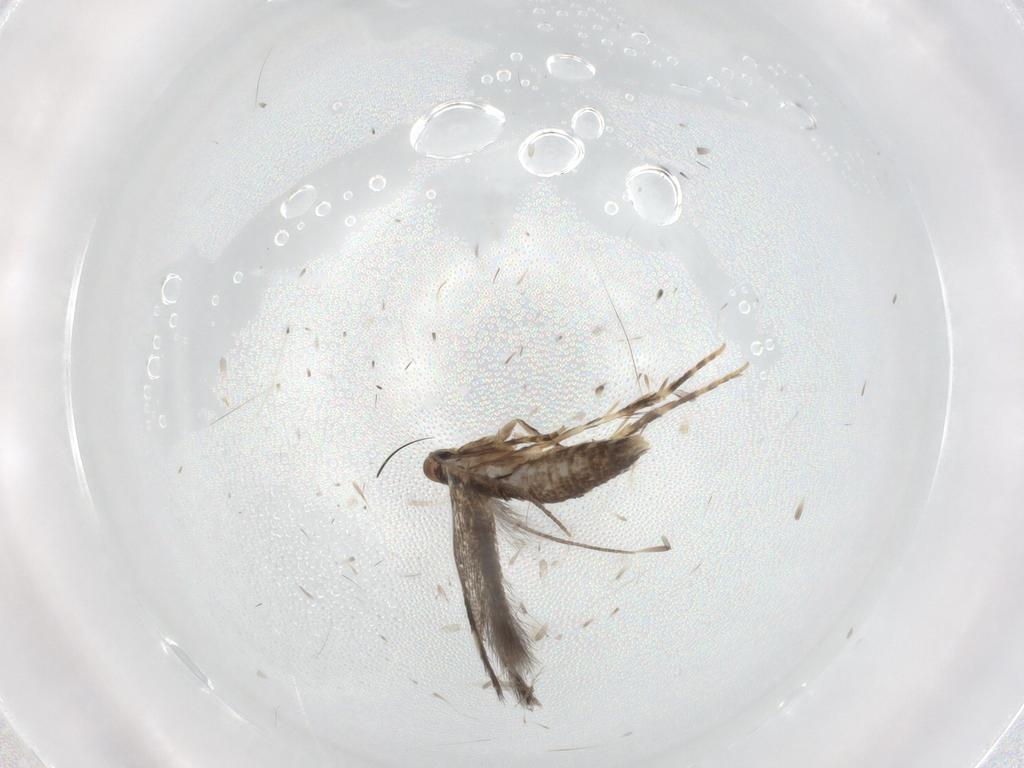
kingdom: Animalia
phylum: Arthropoda
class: Insecta
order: Lepidoptera
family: Elachistidae
